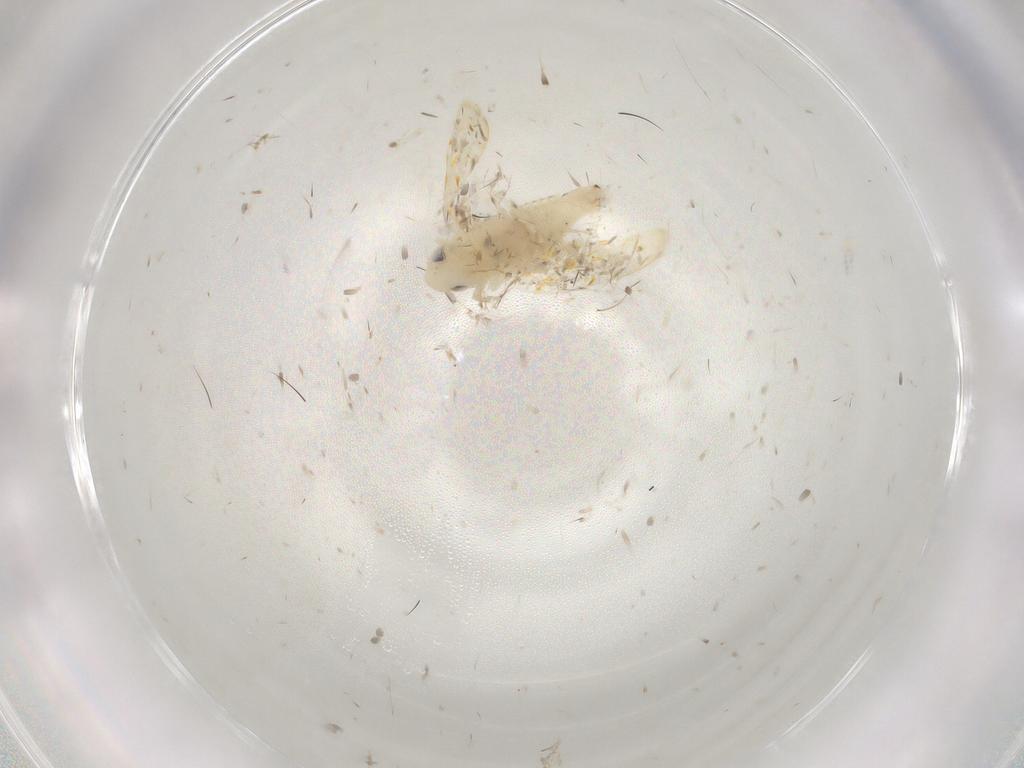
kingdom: Animalia
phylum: Arthropoda
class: Insecta
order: Hemiptera
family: Cicadellidae
